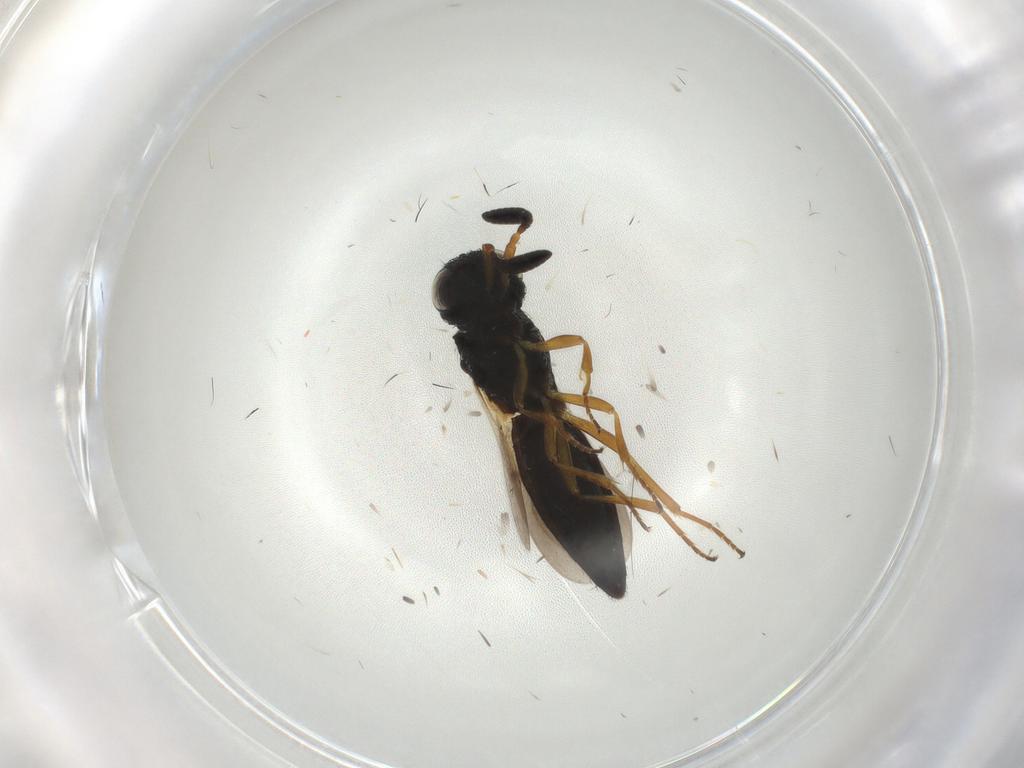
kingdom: Animalia
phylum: Arthropoda
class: Insecta
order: Hymenoptera
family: Scelionidae
